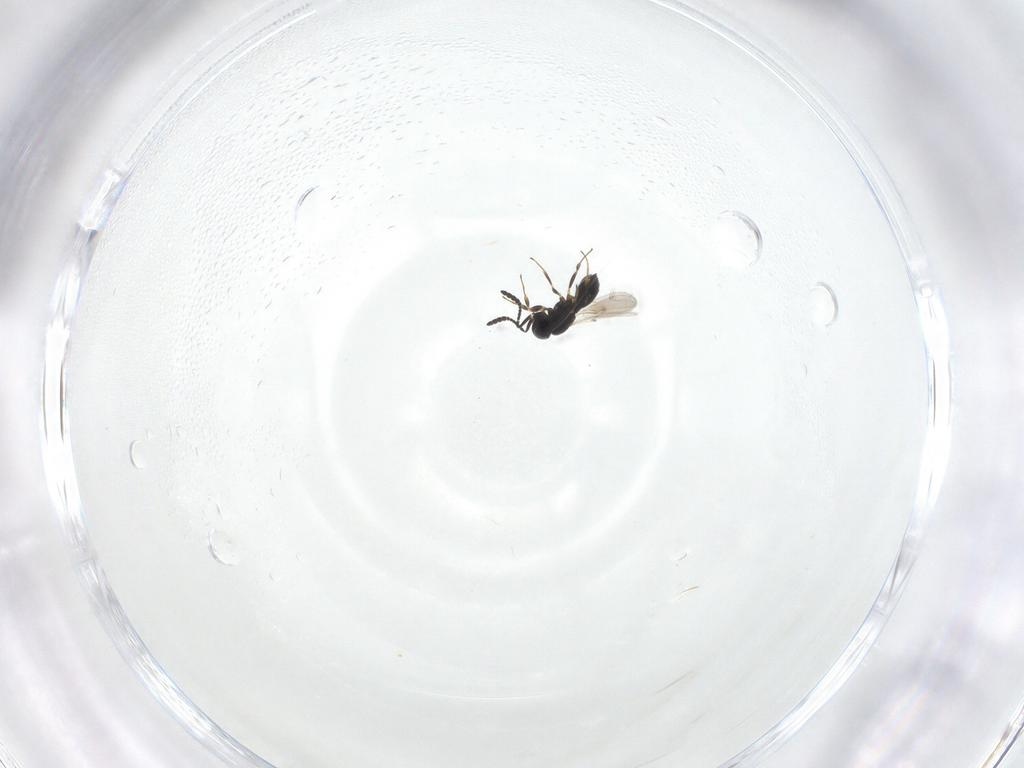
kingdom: Animalia
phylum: Arthropoda
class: Insecta
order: Hymenoptera
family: Scelionidae
